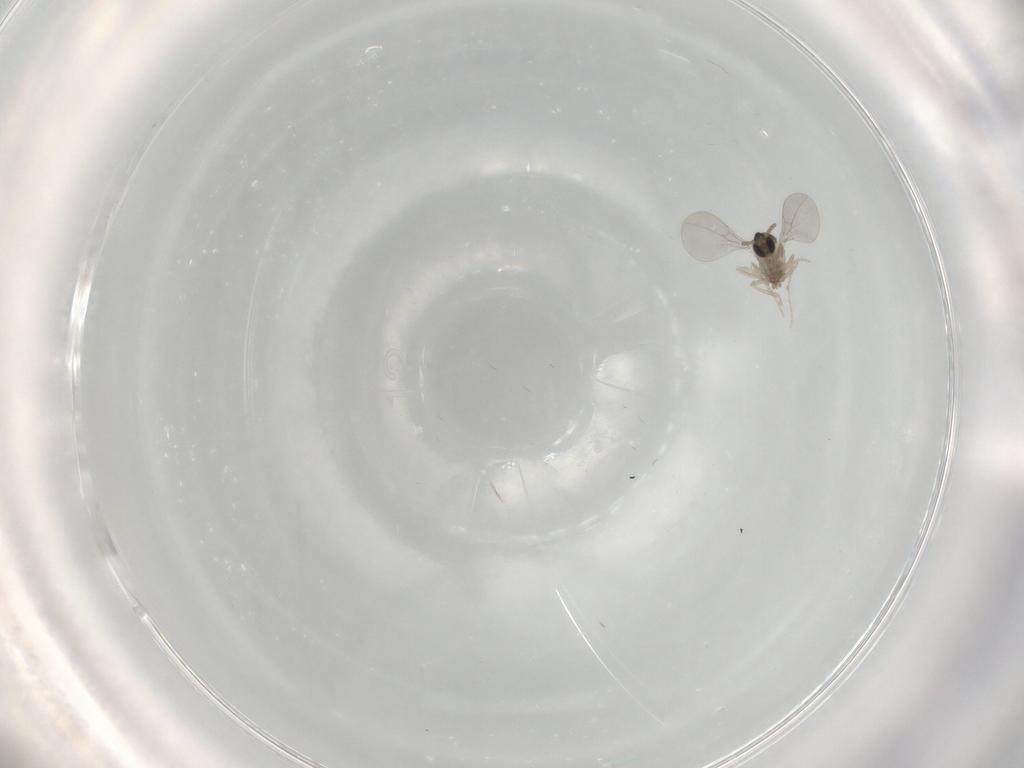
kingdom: Animalia
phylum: Arthropoda
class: Insecta
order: Diptera
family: Cecidomyiidae
